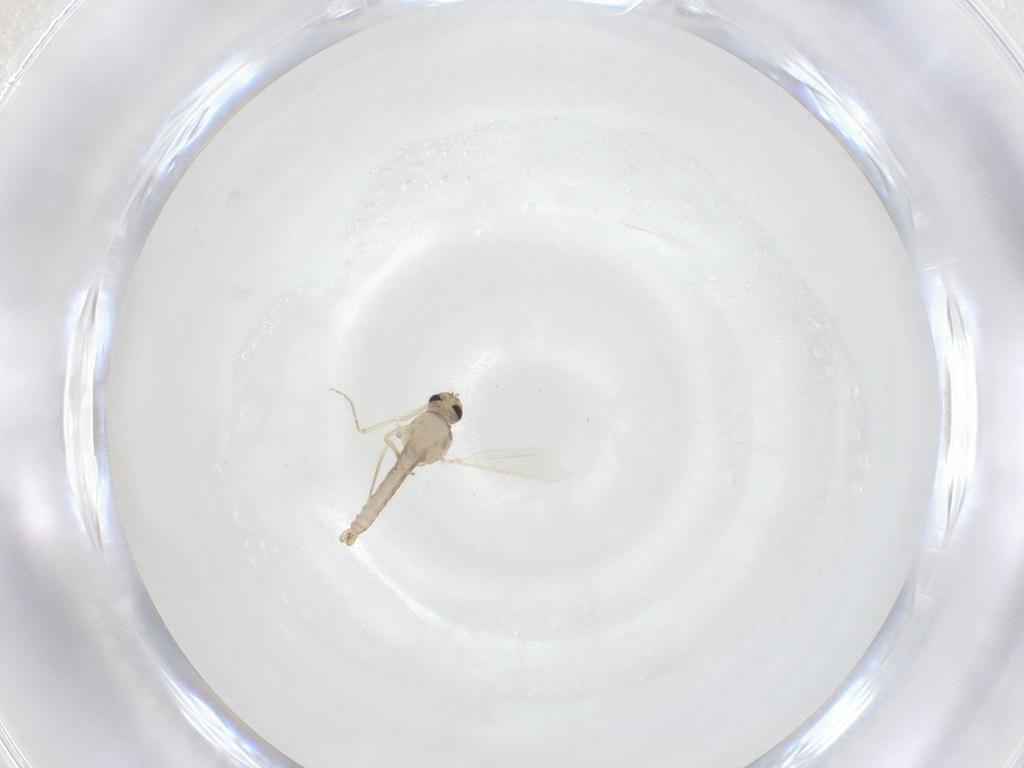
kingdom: Animalia
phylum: Arthropoda
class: Insecta
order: Diptera
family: Ceratopogonidae
